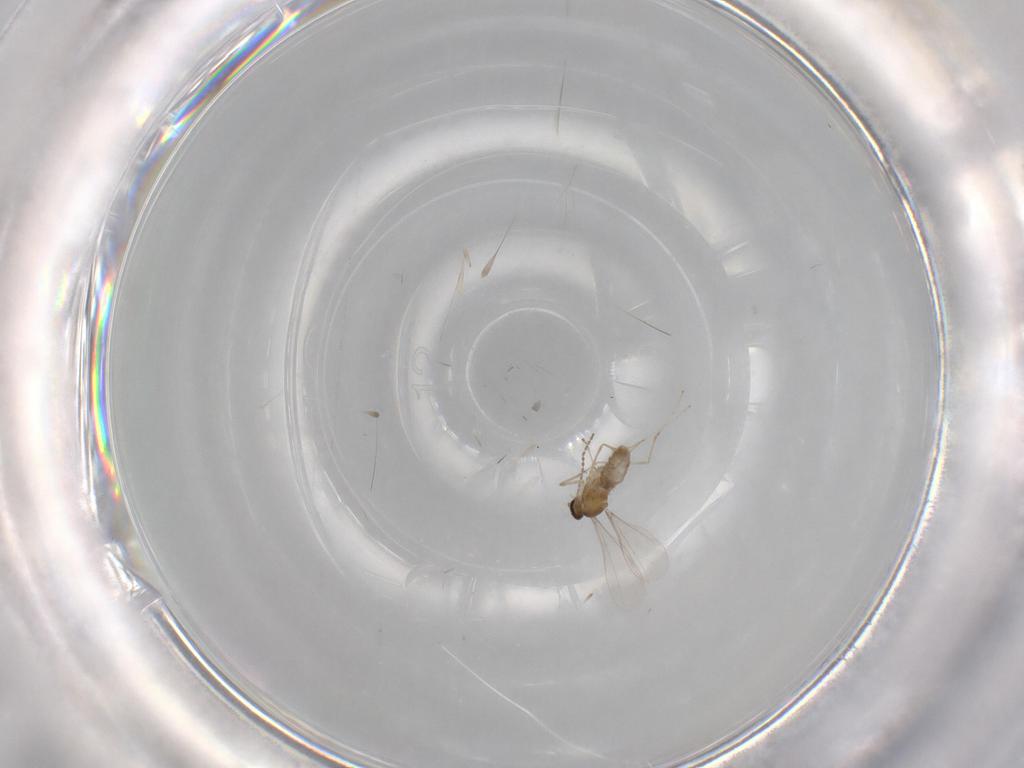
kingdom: Animalia
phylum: Arthropoda
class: Insecta
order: Diptera
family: Cecidomyiidae
